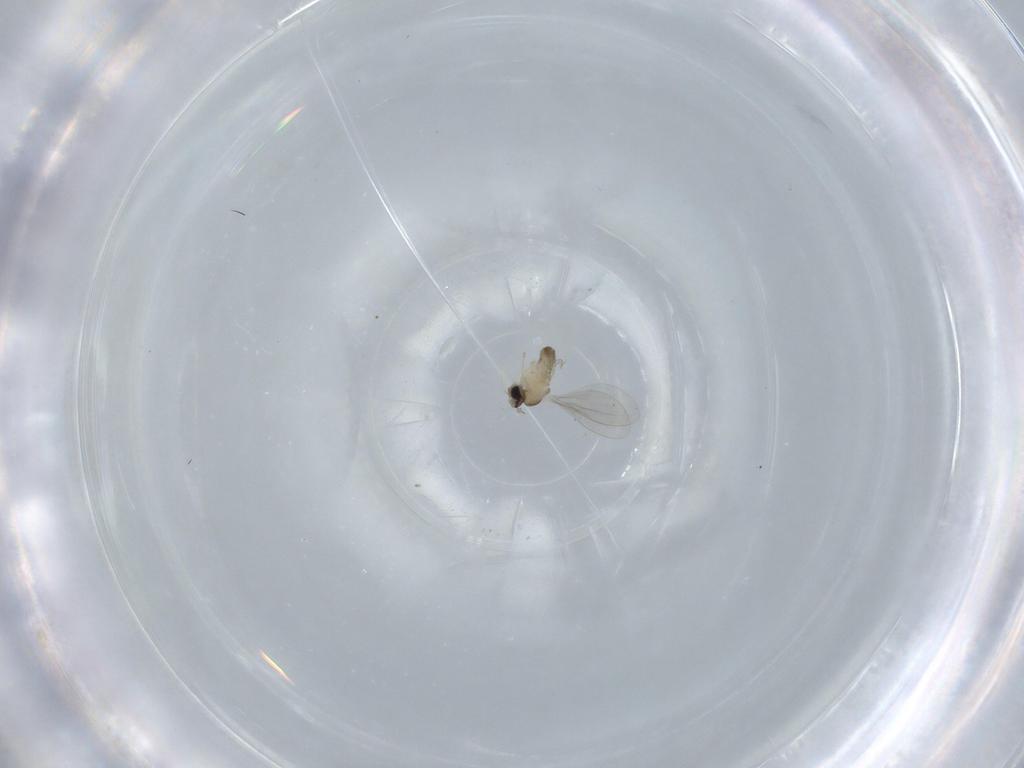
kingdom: Animalia
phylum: Arthropoda
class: Insecta
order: Diptera
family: Cecidomyiidae
